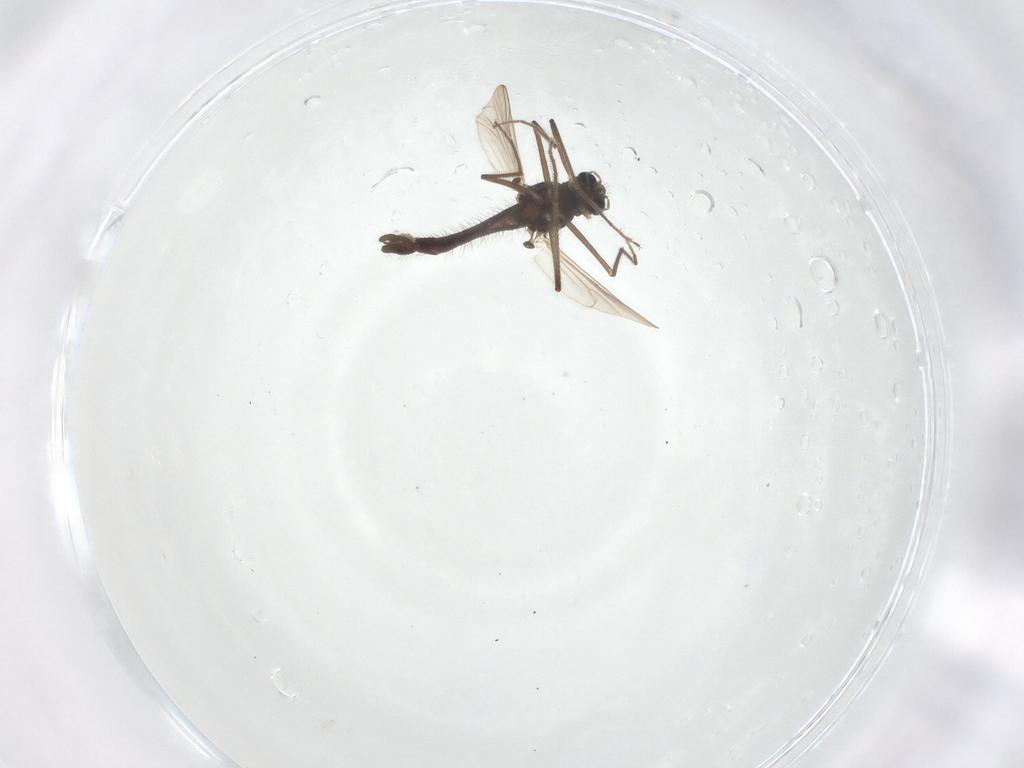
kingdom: Animalia
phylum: Arthropoda
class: Insecta
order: Diptera
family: Chironomidae
